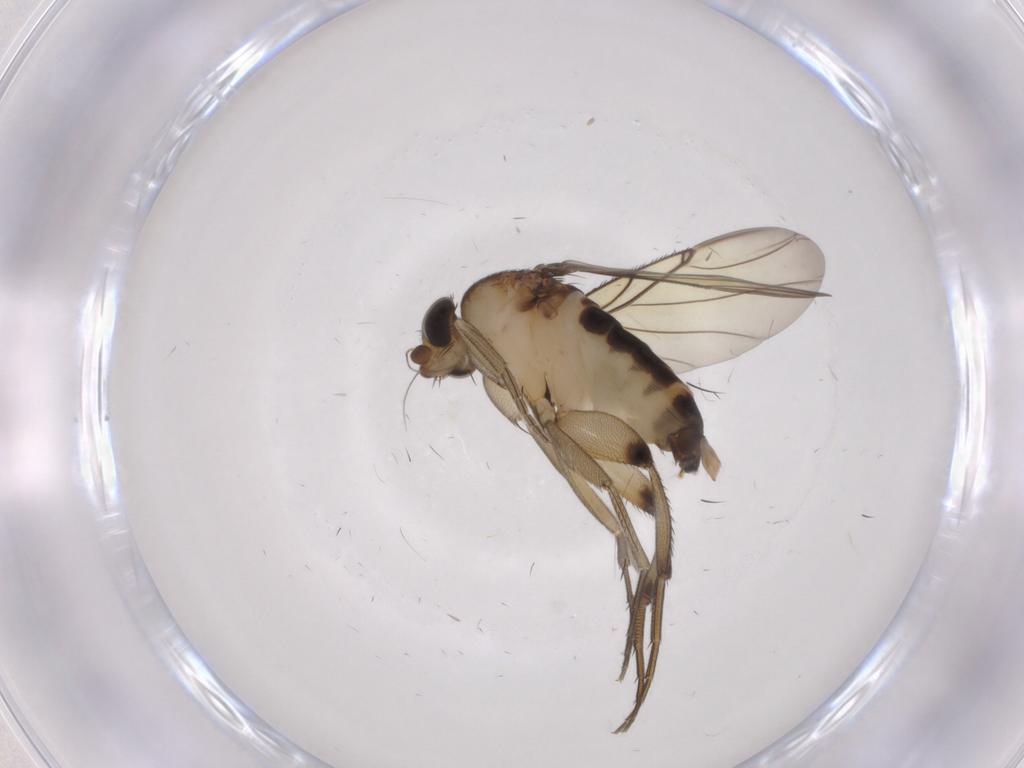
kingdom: Animalia
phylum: Arthropoda
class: Insecta
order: Diptera
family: Phoridae
